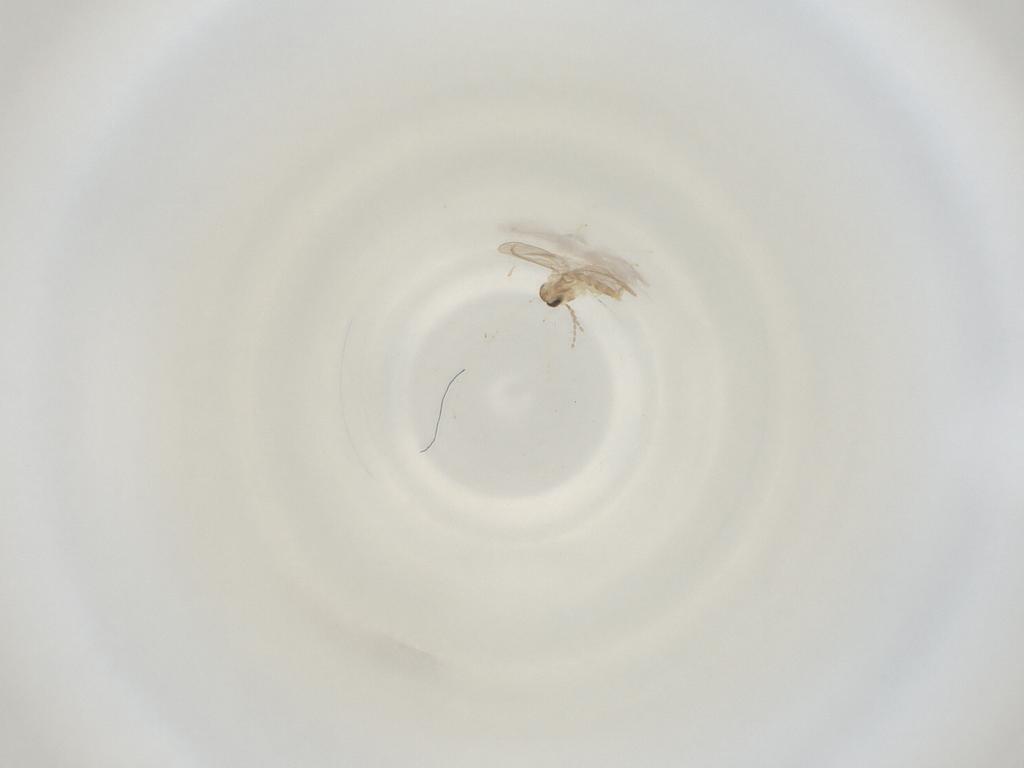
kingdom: Animalia
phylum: Arthropoda
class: Insecta
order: Diptera
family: Cecidomyiidae
